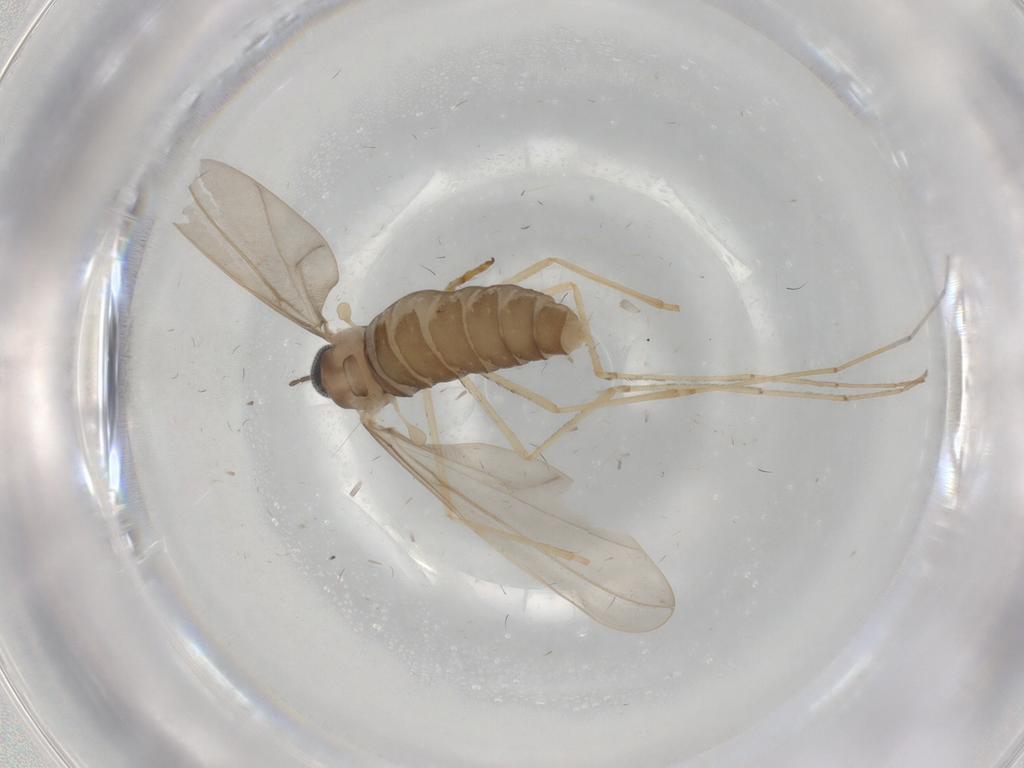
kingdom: Animalia
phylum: Arthropoda
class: Insecta
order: Diptera
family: Cecidomyiidae
